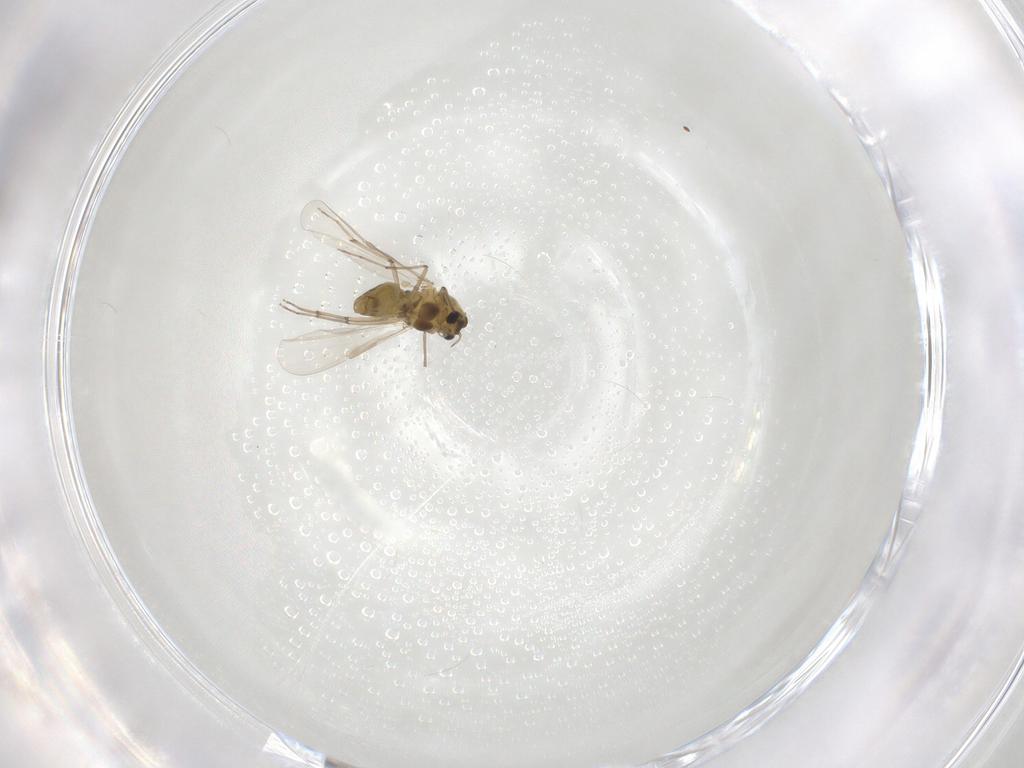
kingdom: Animalia
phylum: Arthropoda
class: Insecta
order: Diptera
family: Chironomidae
